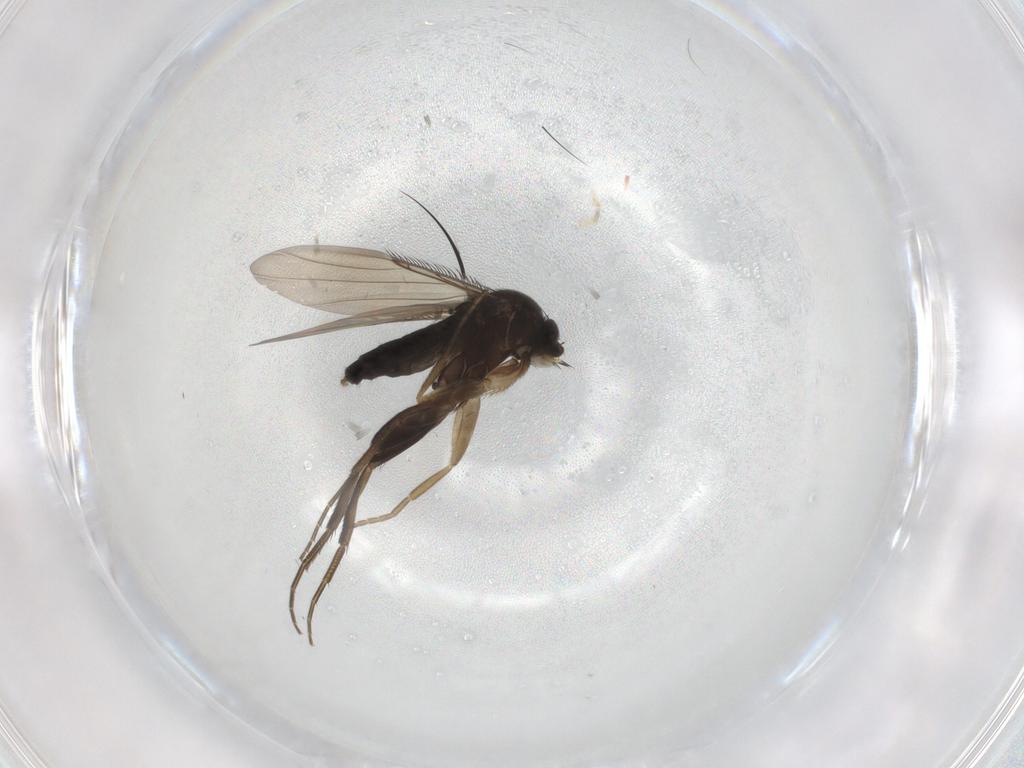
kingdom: Animalia
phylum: Arthropoda
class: Insecta
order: Diptera
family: Phoridae
